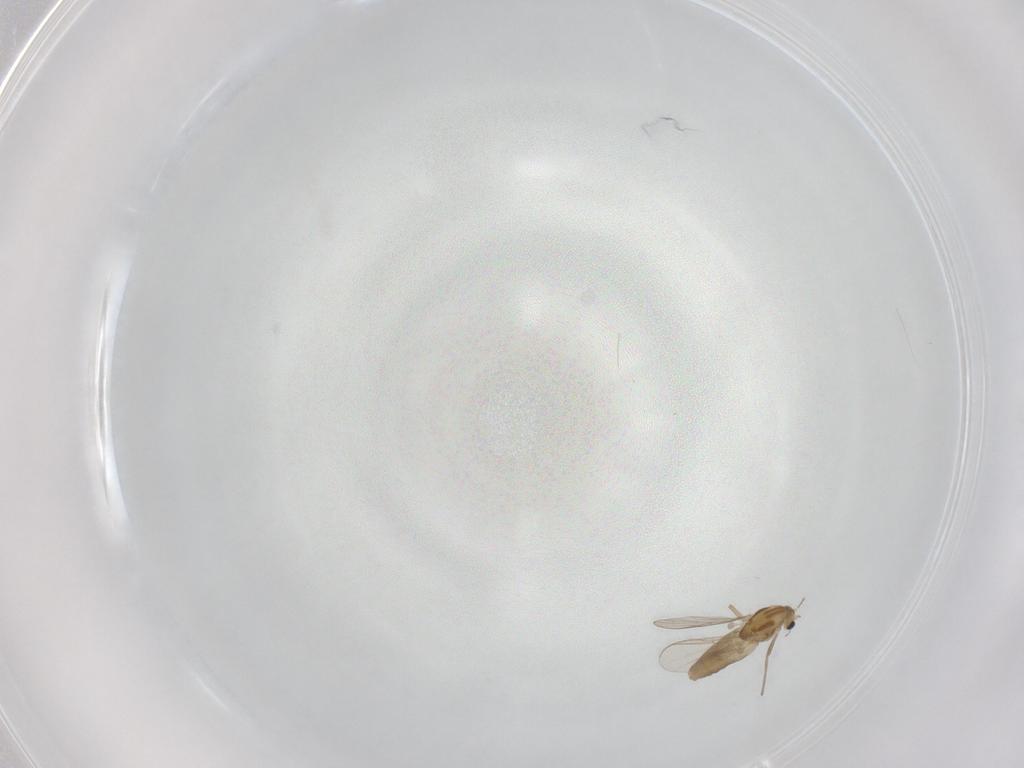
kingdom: Animalia
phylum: Arthropoda
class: Insecta
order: Diptera
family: Chironomidae
